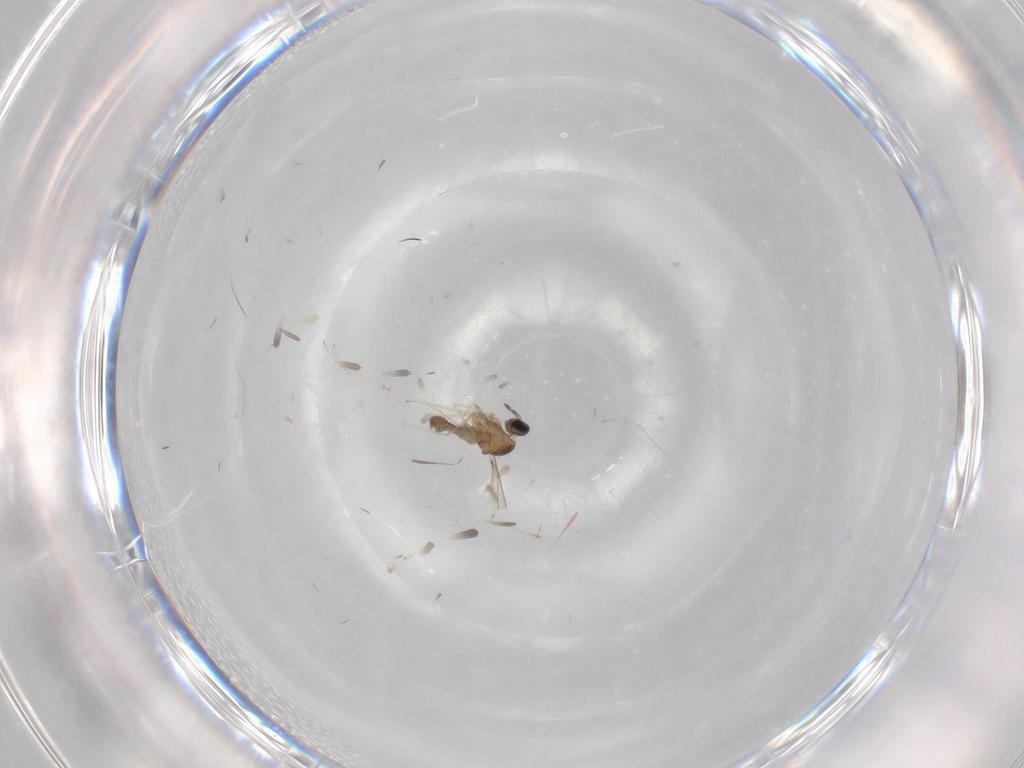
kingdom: Animalia
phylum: Arthropoda
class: Insecta
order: Diptera
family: Cecidomyiidae
